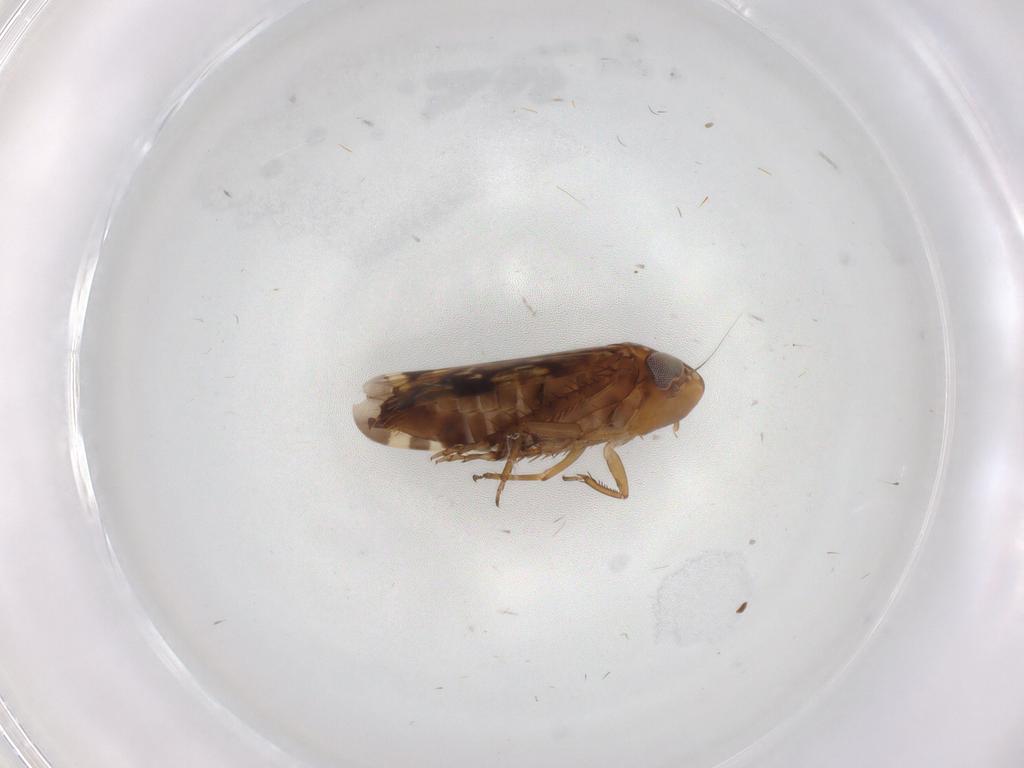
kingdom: Animalia
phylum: Arthropoda
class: Insecta
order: Hemiptera
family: Cicadellidae
